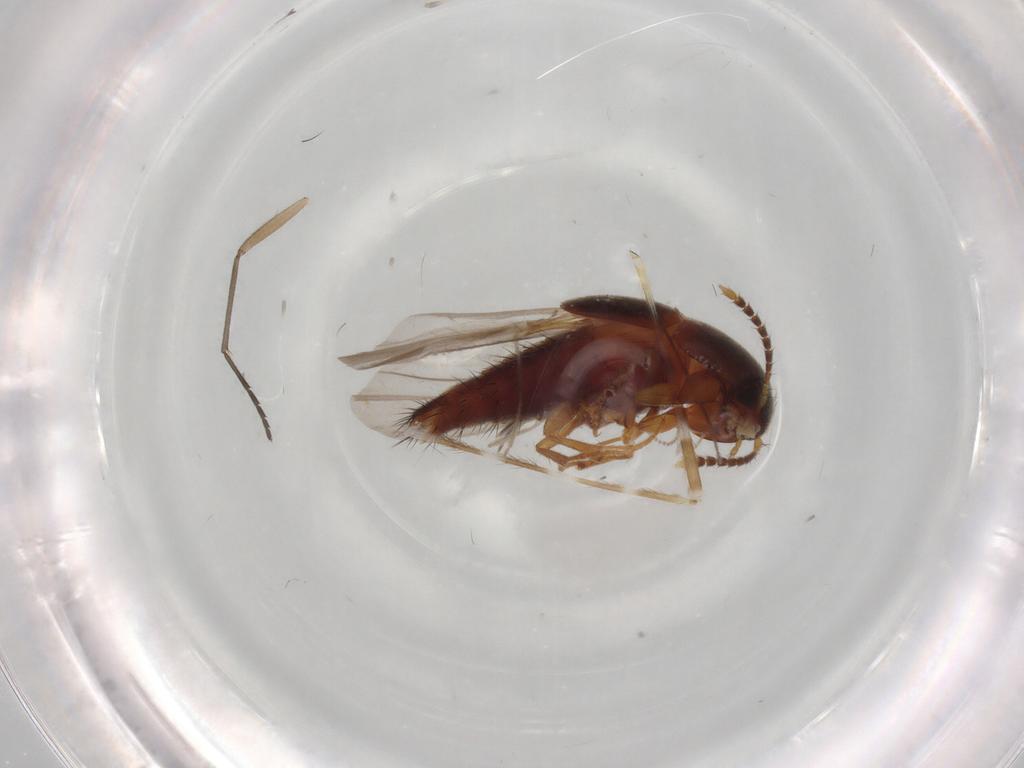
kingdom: Animalia
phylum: Arthropoda
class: Insecta
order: Coleoptera
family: Staphylinidae
